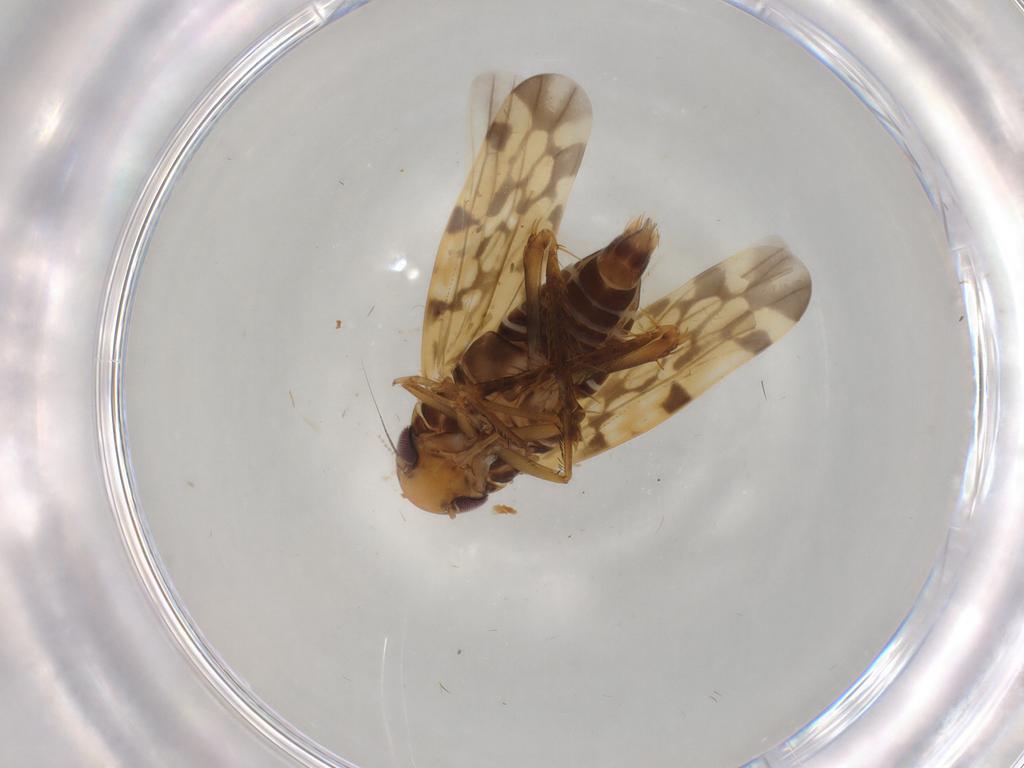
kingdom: Animalia
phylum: Arthropoda
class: Insecta
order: Hemiptera
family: Cicadellidae
